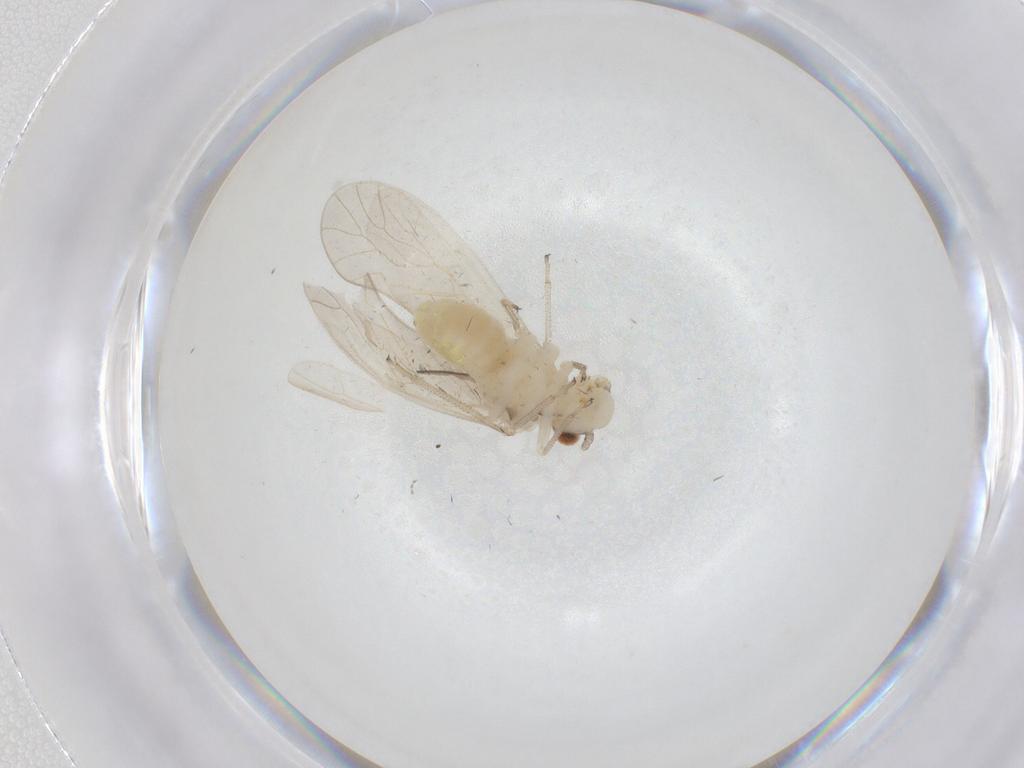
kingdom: Animalia
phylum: Arthropoda
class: Insecta
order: Psocodea
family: Caeciliusidae
